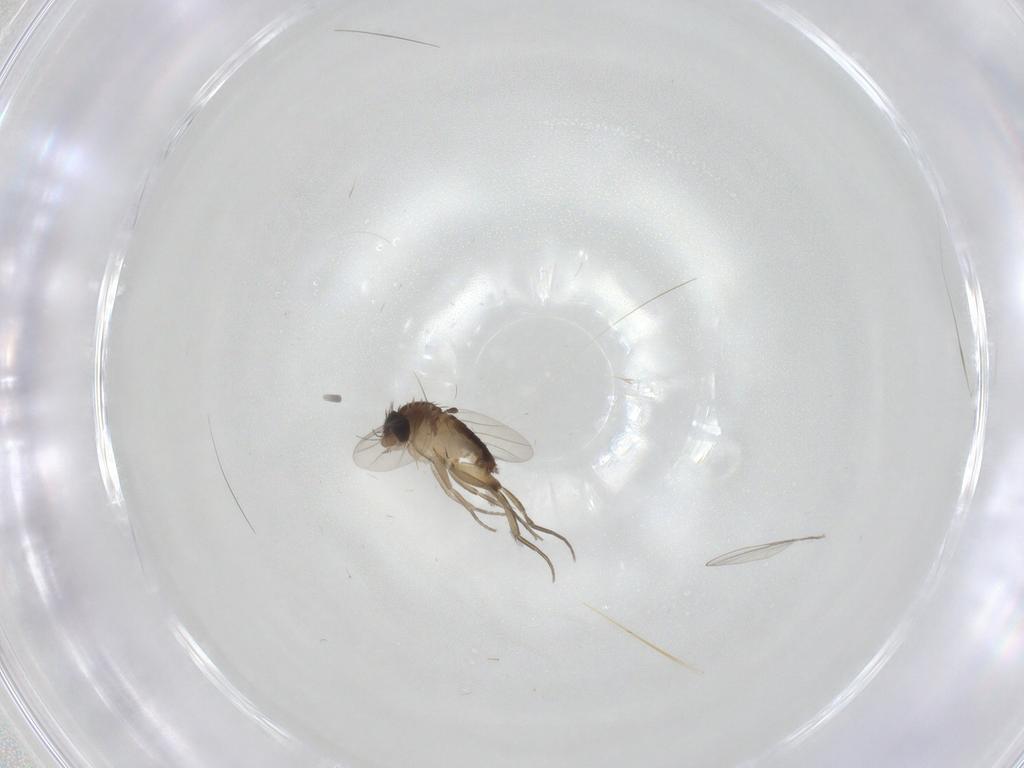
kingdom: Animalia
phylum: Arthropoda
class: Insecta
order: Diptera
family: Phoridae
